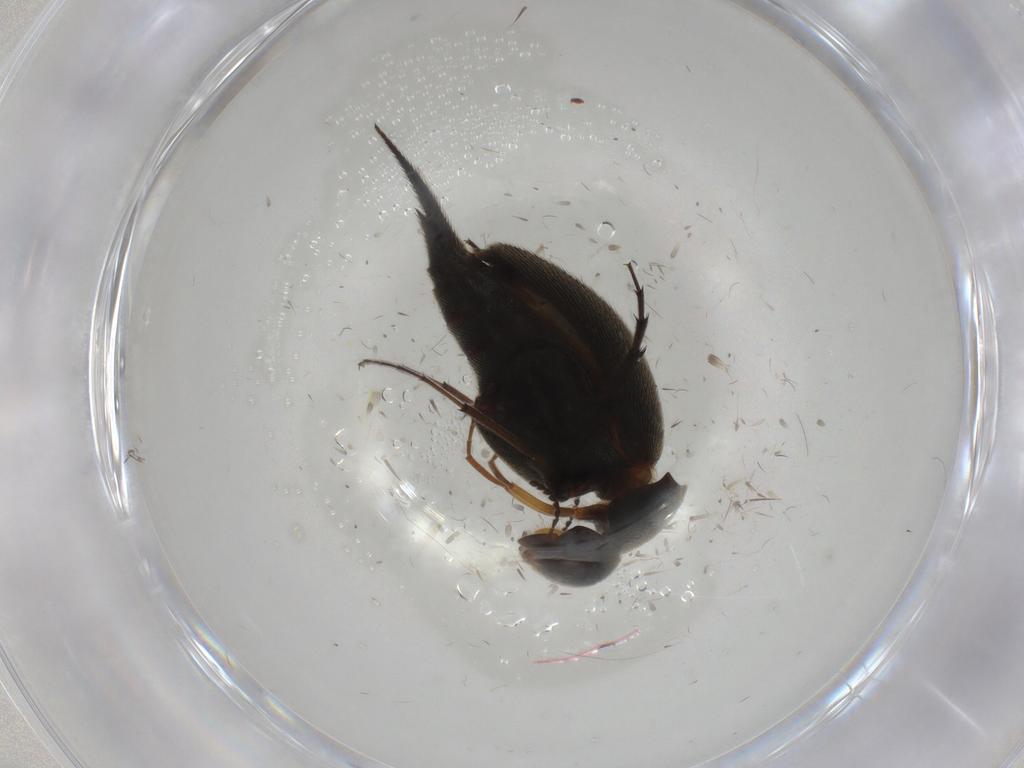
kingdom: Animalia
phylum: Arthropoda
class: Insecta
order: Coleoptera
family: Mordellidae
